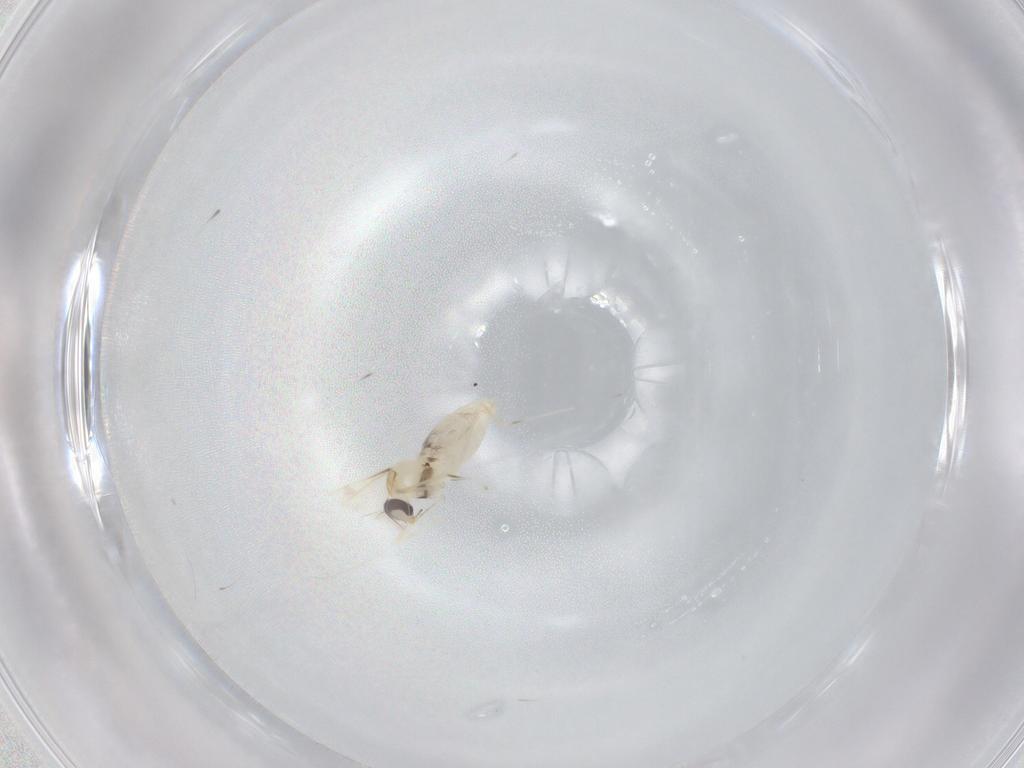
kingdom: Animalia
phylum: Arthropoda
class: Insecta
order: Diptera
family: Cecidomyiidae
